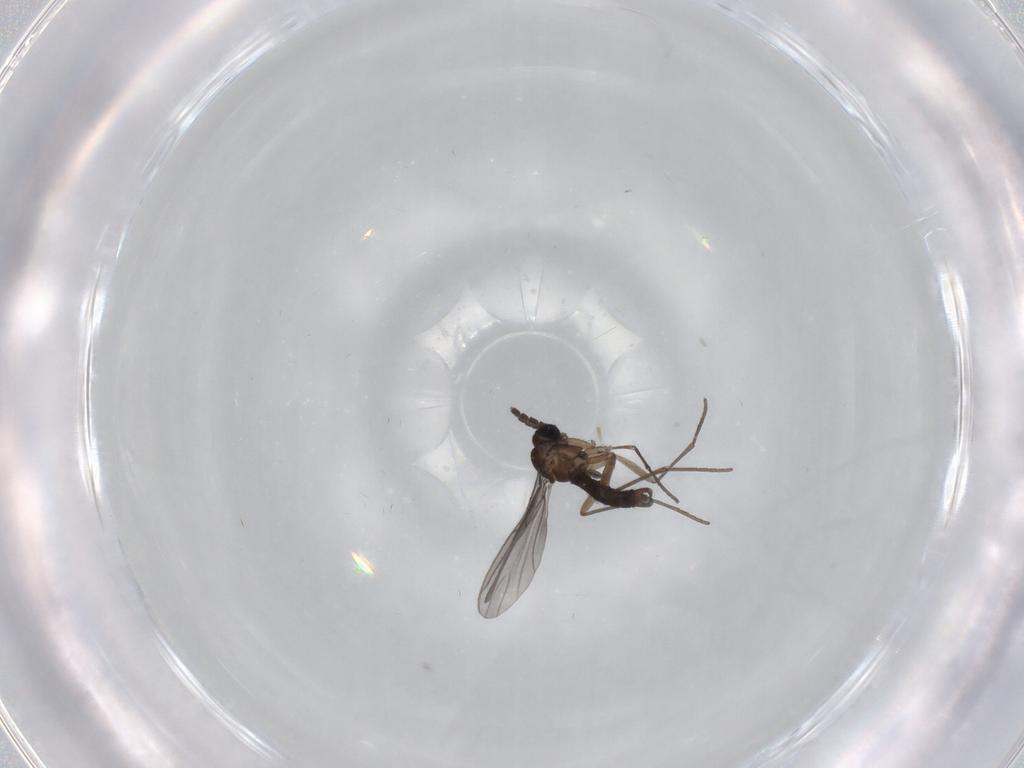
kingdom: Animalia
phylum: Arthropoda
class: Insecta
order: Diptera
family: Sciaridae
